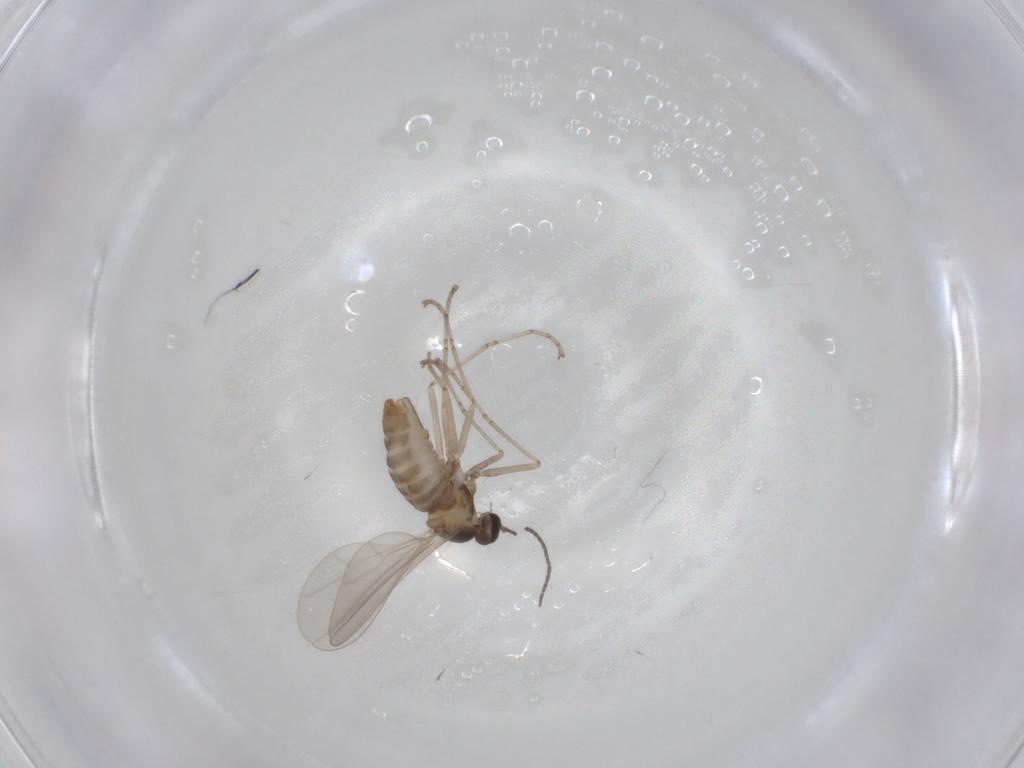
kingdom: Animalia
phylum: Arthropoda
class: Insecta
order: Diptera
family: Cecidomyiidae
